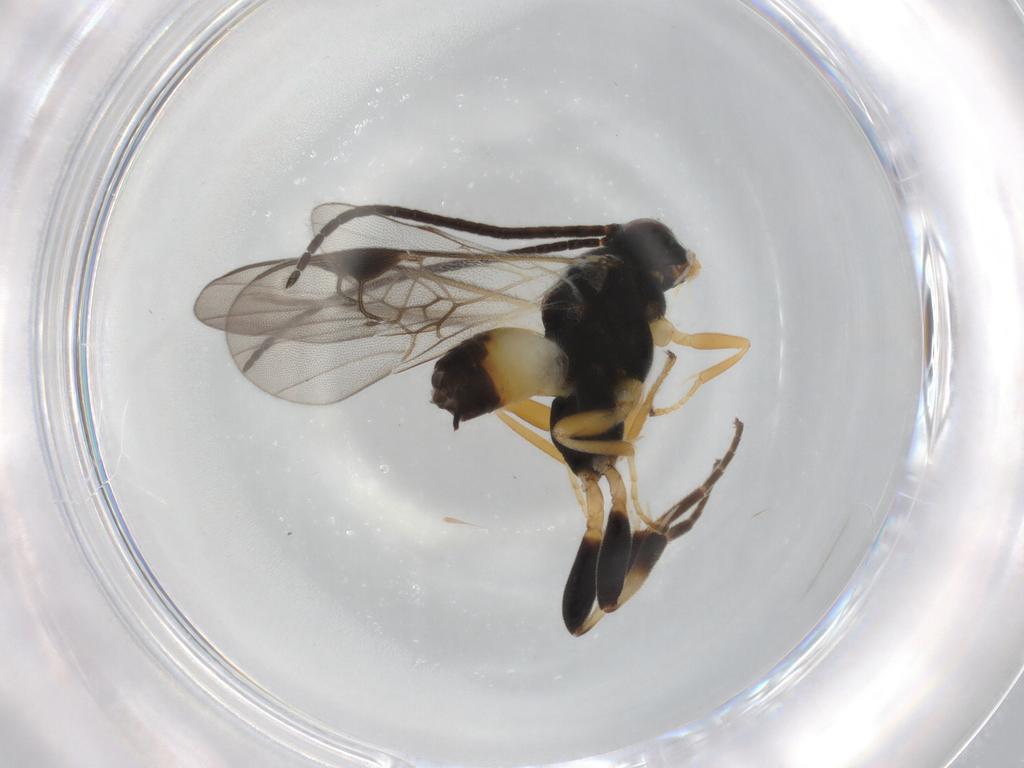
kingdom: Animalia
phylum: Arthropoda
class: Insecta
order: Hymenoptera
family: Braconidae
